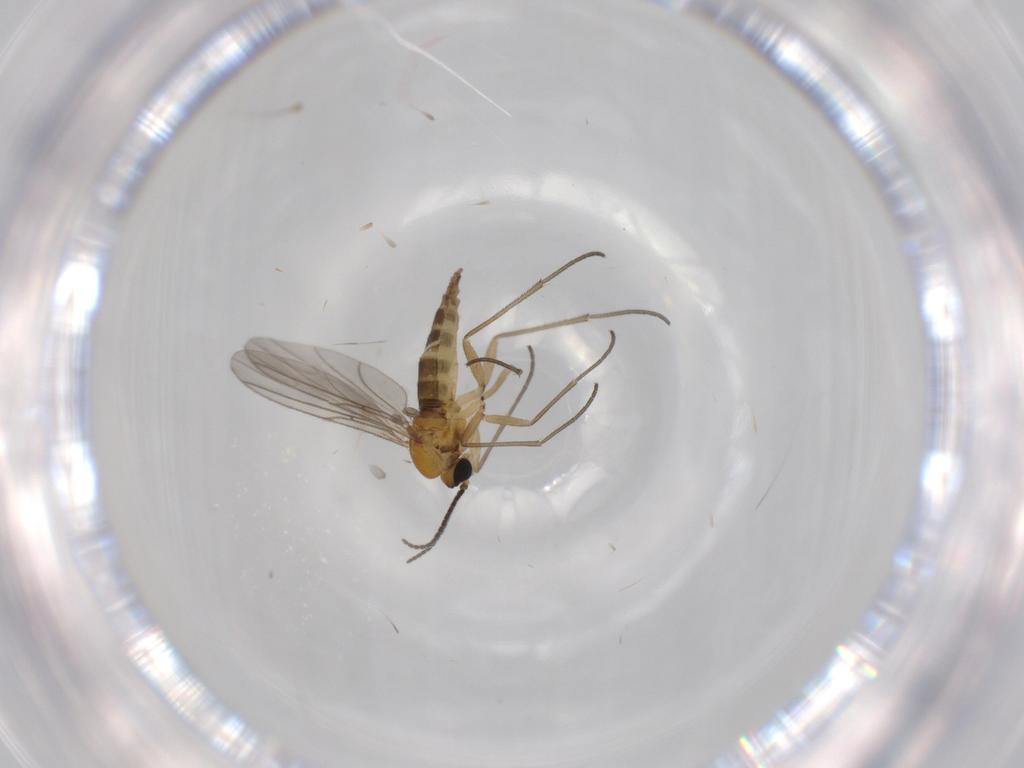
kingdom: Animalia
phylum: Arthropoda
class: Insecta
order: Diptera
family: Sciaridae
